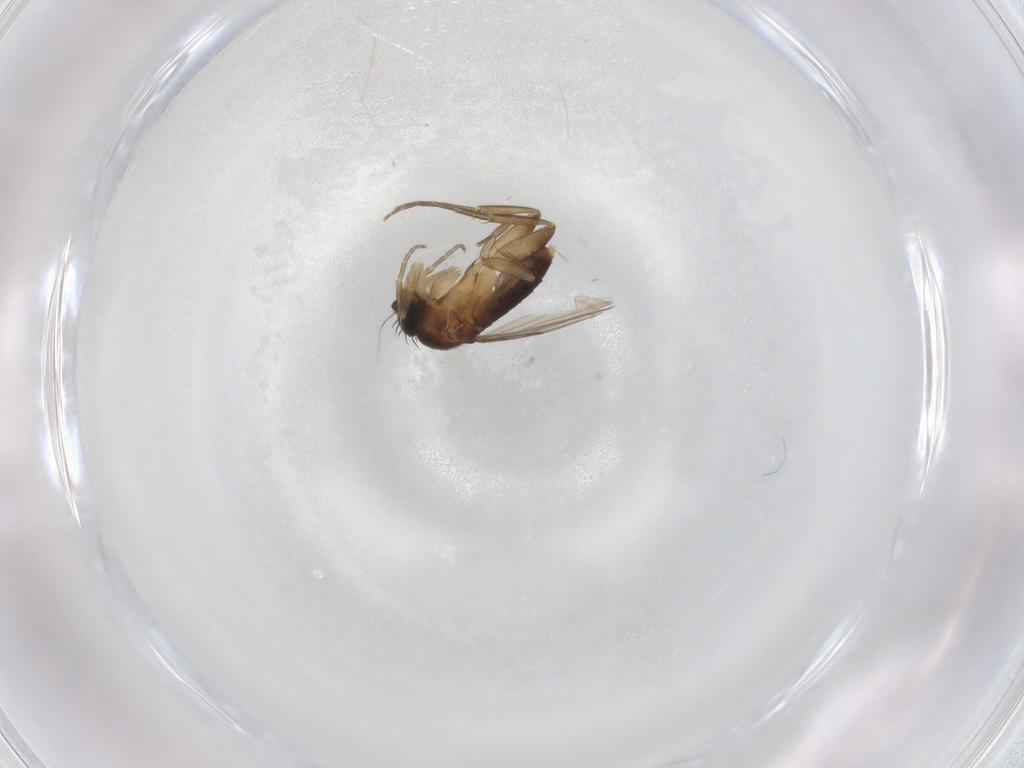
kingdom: Animalia
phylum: Arthropoda
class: Insecta
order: Diptera
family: Phoridae
